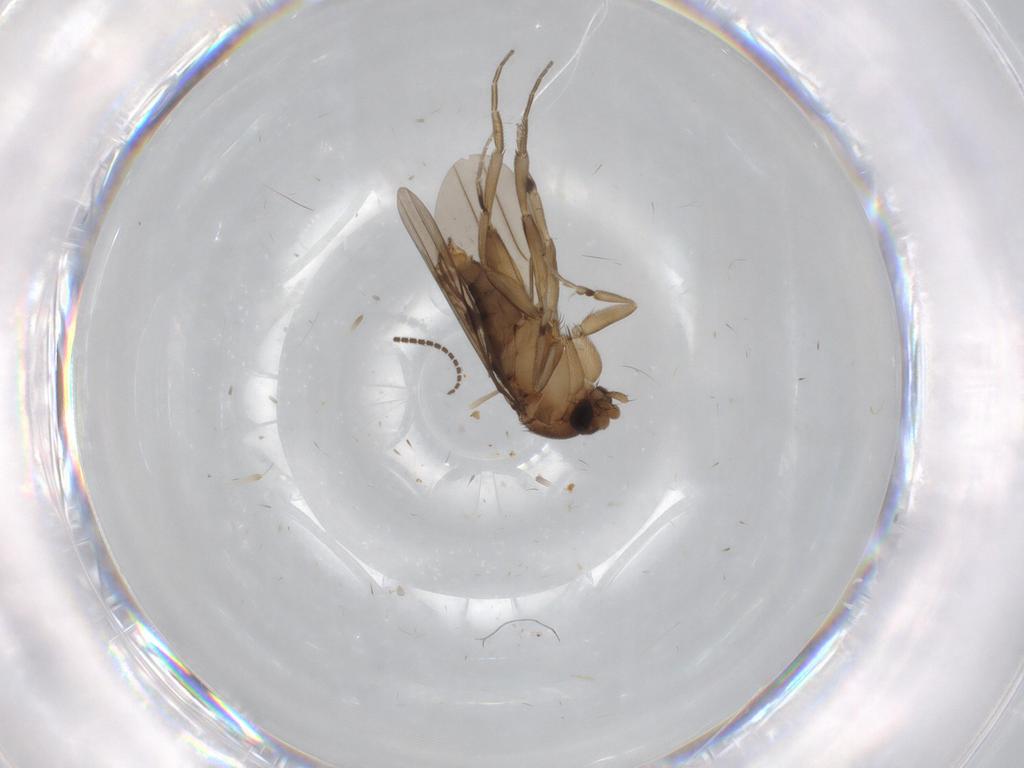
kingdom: Animalia
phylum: Arthropoda
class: Insecta
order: Diptera
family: Sciaridae
